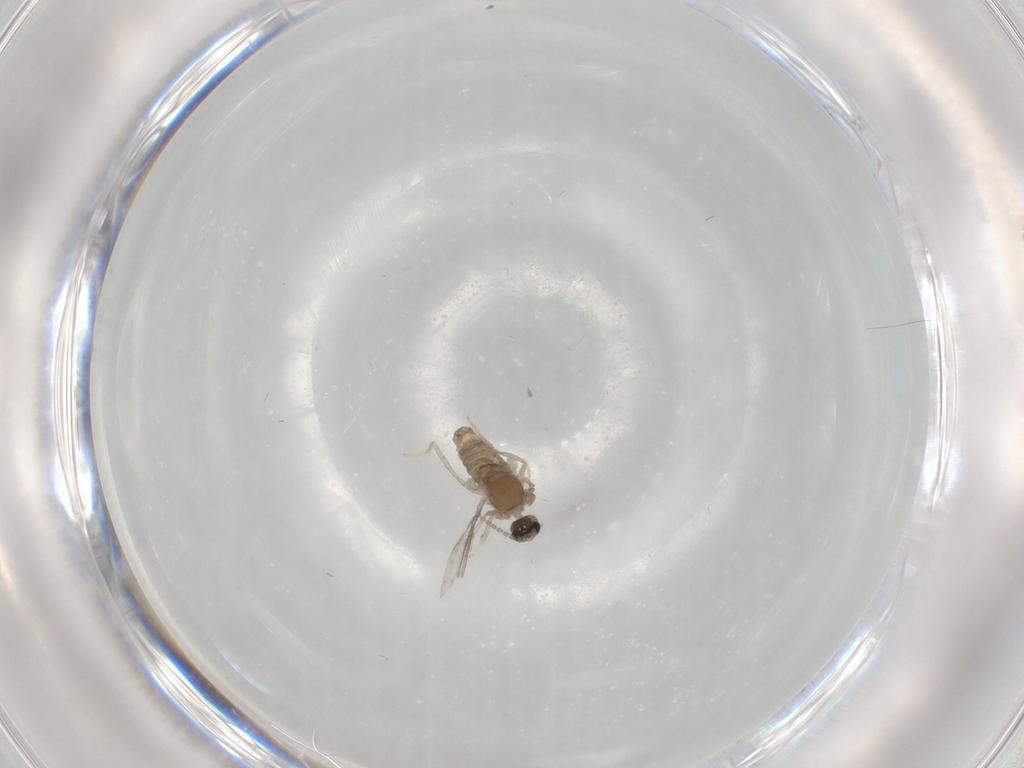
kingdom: Animalia
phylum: Arthropoda
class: Insecta
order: Diptera
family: Cecidomyiidae
